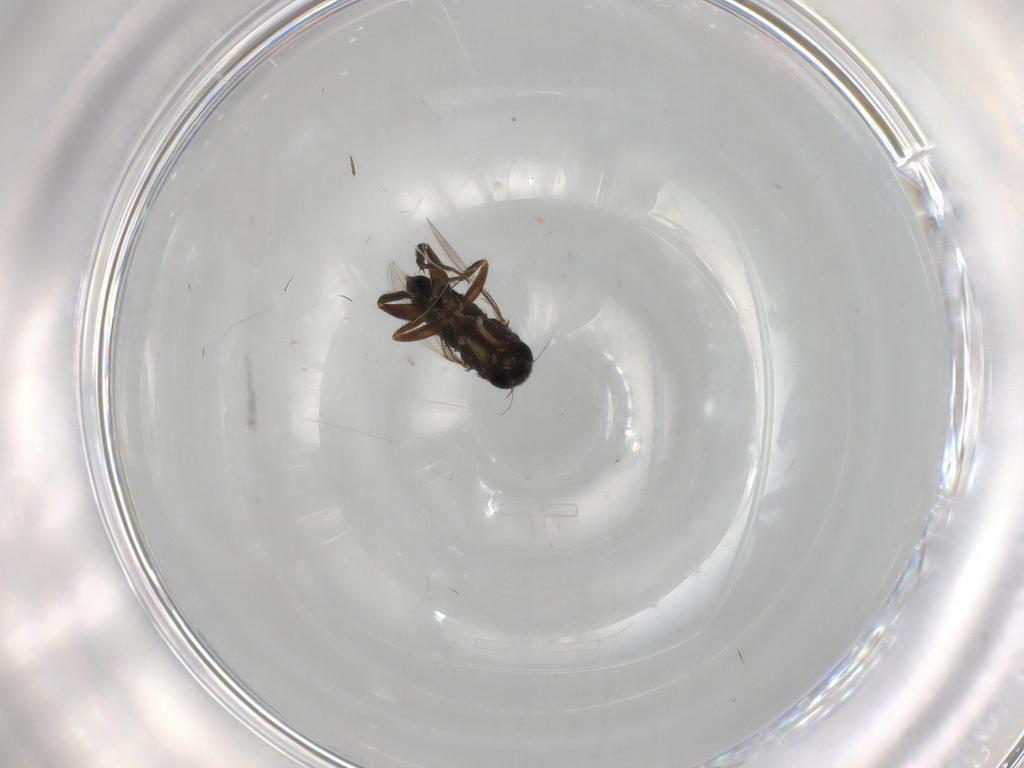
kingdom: Animalia
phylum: Arthropoda
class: Insecta
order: Diptera
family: Phoridae
